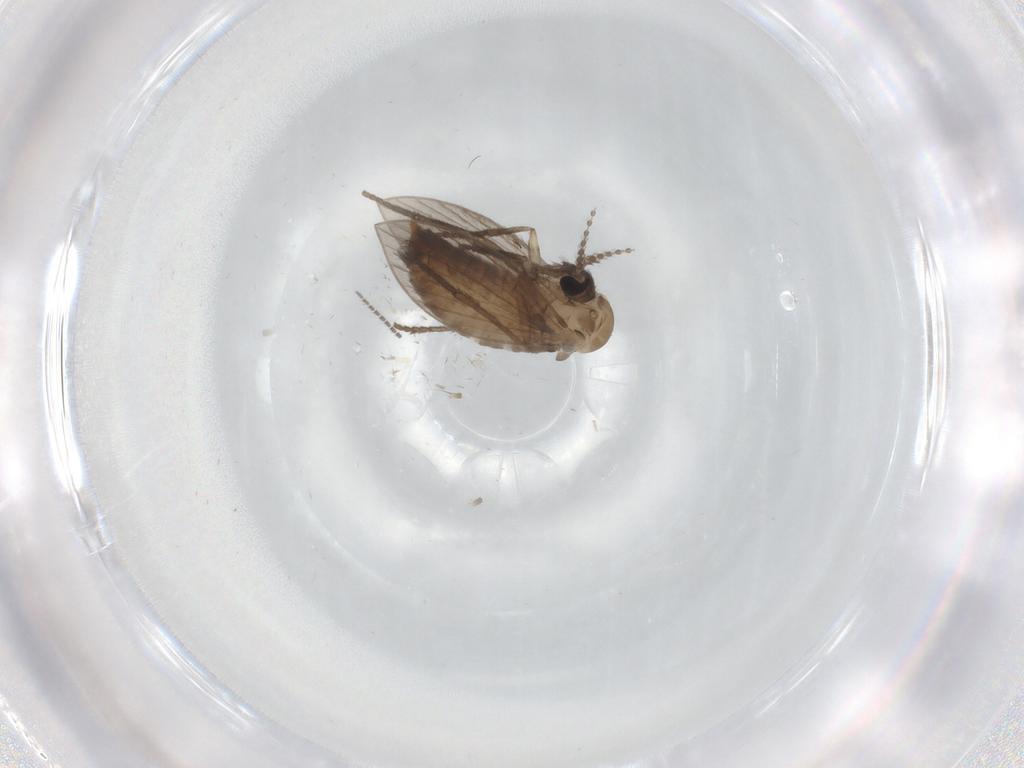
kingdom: Animalia
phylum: Arthropoda
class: Insecta
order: Diptera
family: Psychodidae
